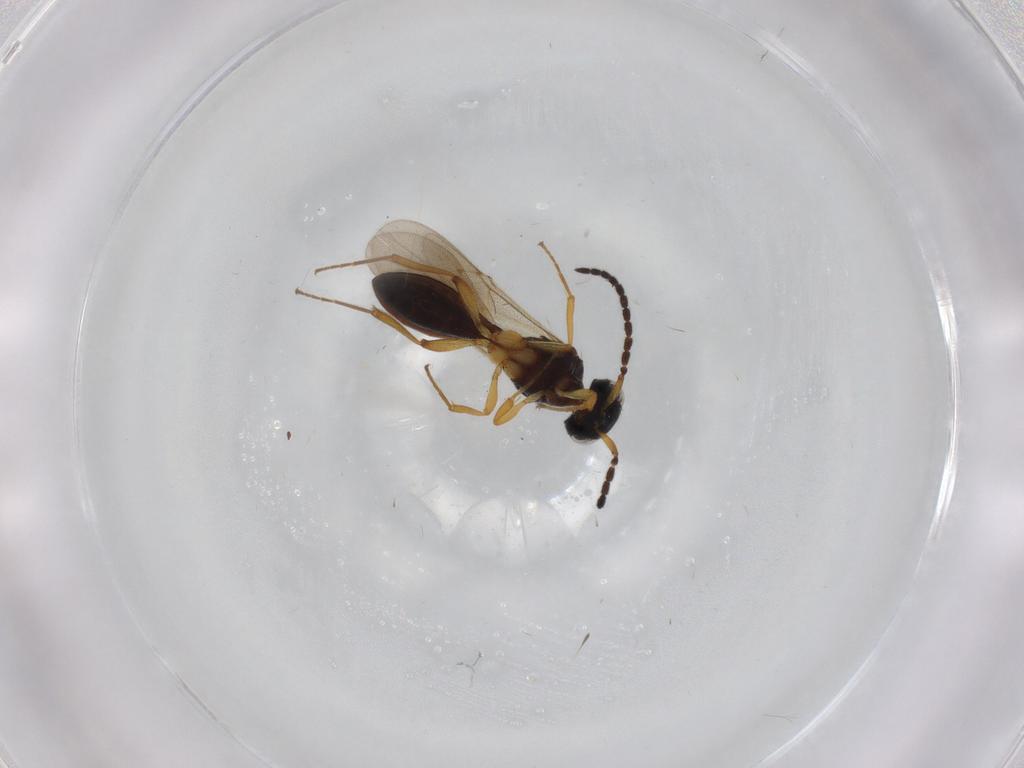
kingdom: Animalia
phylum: Arthropoda
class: Insecta
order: Hymenoptera
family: Scelionidae
